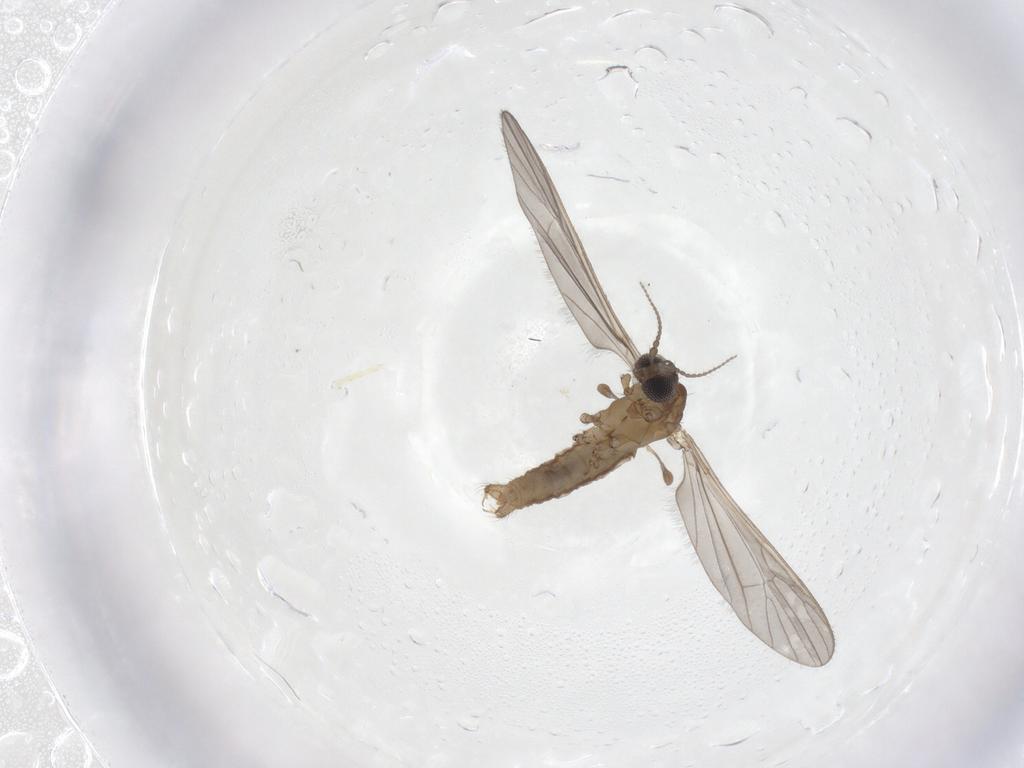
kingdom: Animalia
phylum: Arthropoda
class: Insecta
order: Diptera
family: Limoniidae
